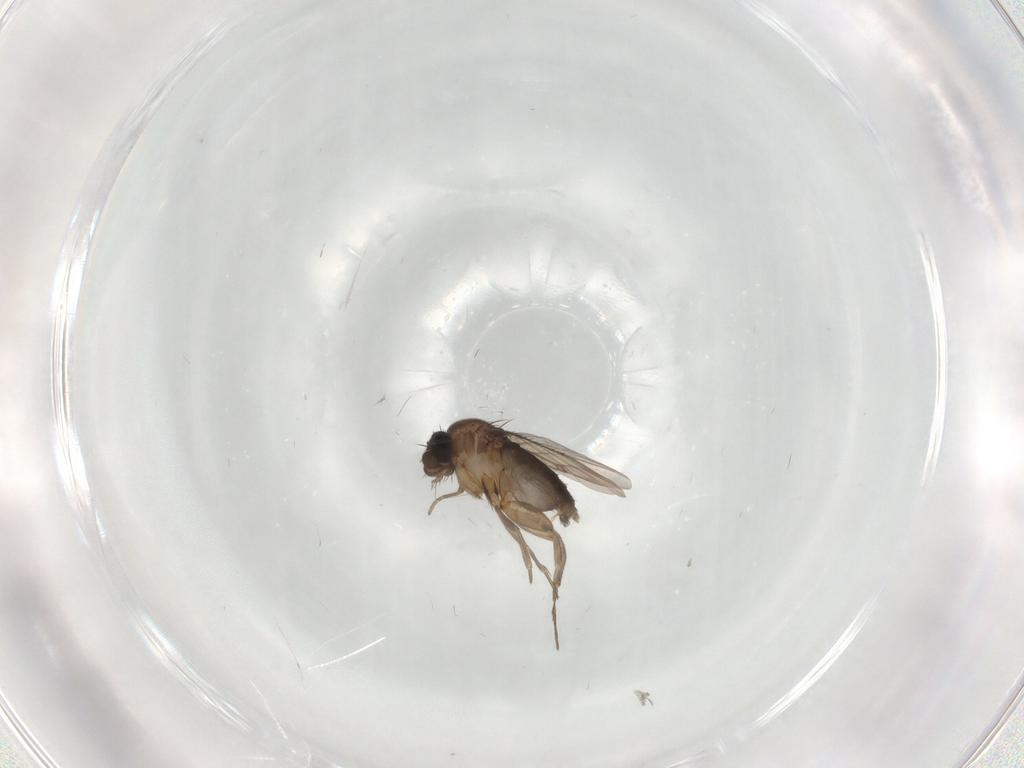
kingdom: Animalia
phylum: Arthropoda
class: Insecta
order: Diptera
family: Phoridae
